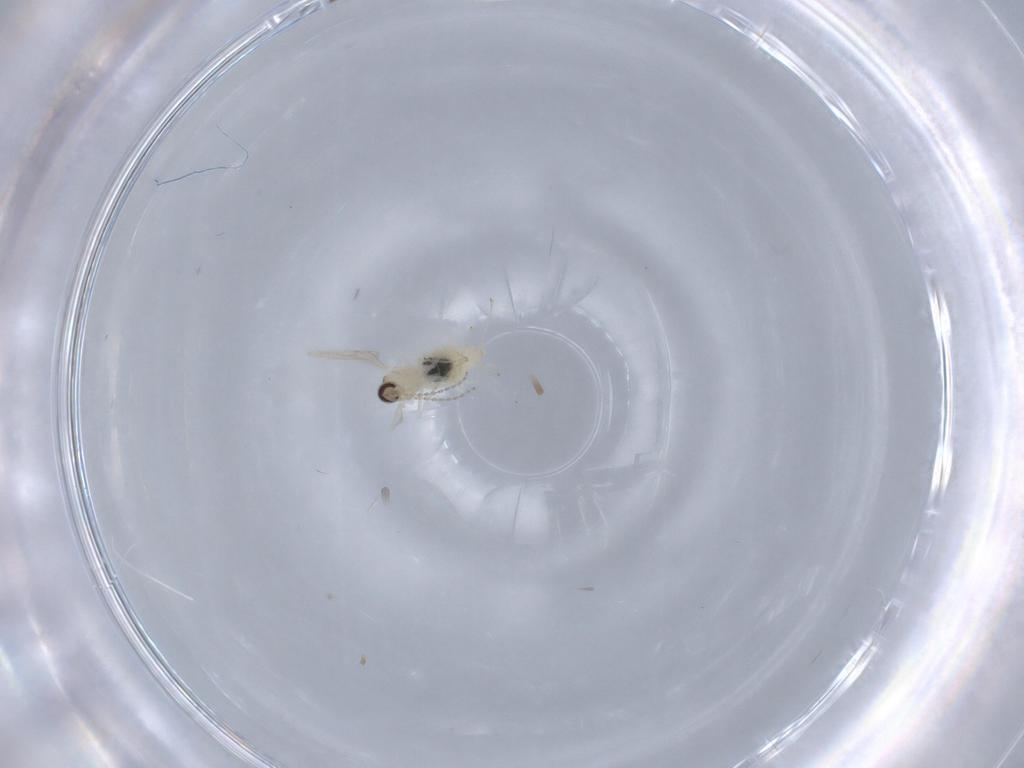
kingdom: Animalia
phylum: Arthropoda
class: Insecta
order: Diptera
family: Cecidomyiidae
